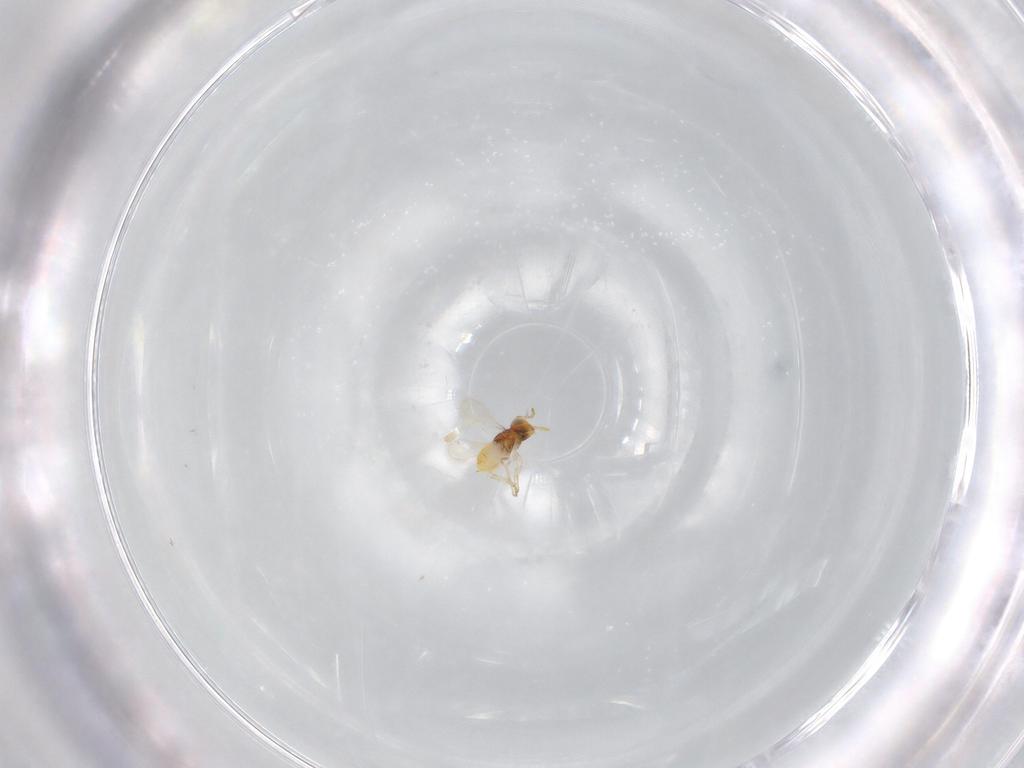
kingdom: Animalia
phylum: Arthropoda
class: Insecta
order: Hymenoptera
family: Aphelinidae
